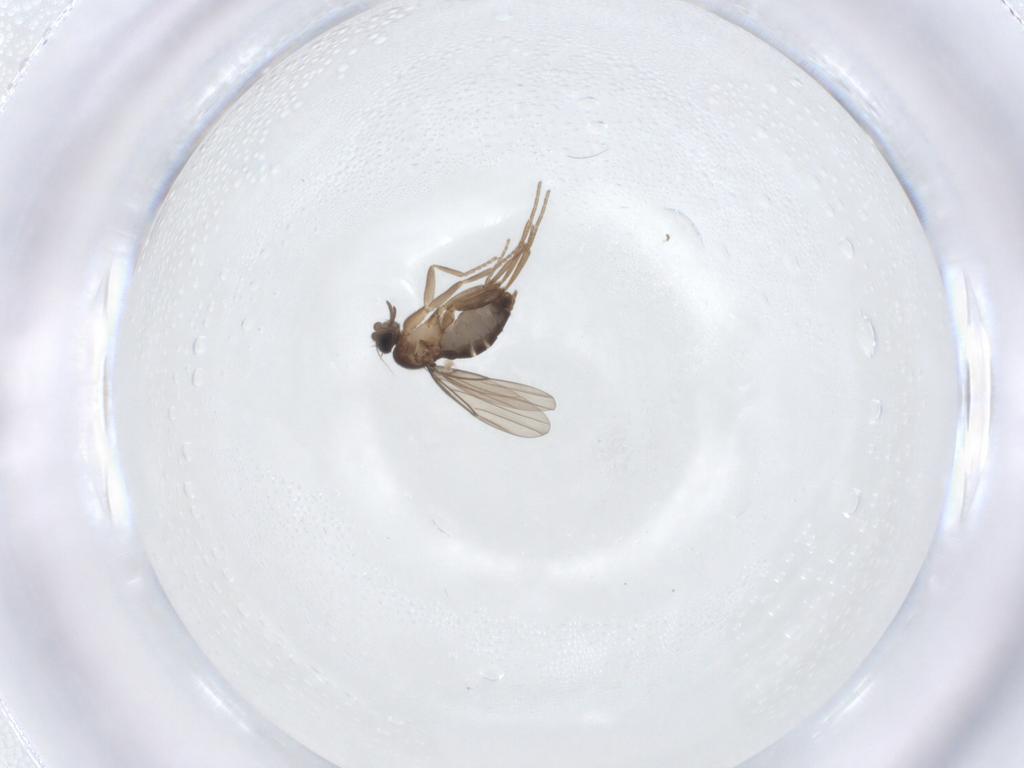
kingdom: Animalia
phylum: Arthropoda
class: Insecta
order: Diptera
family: Phoridae
